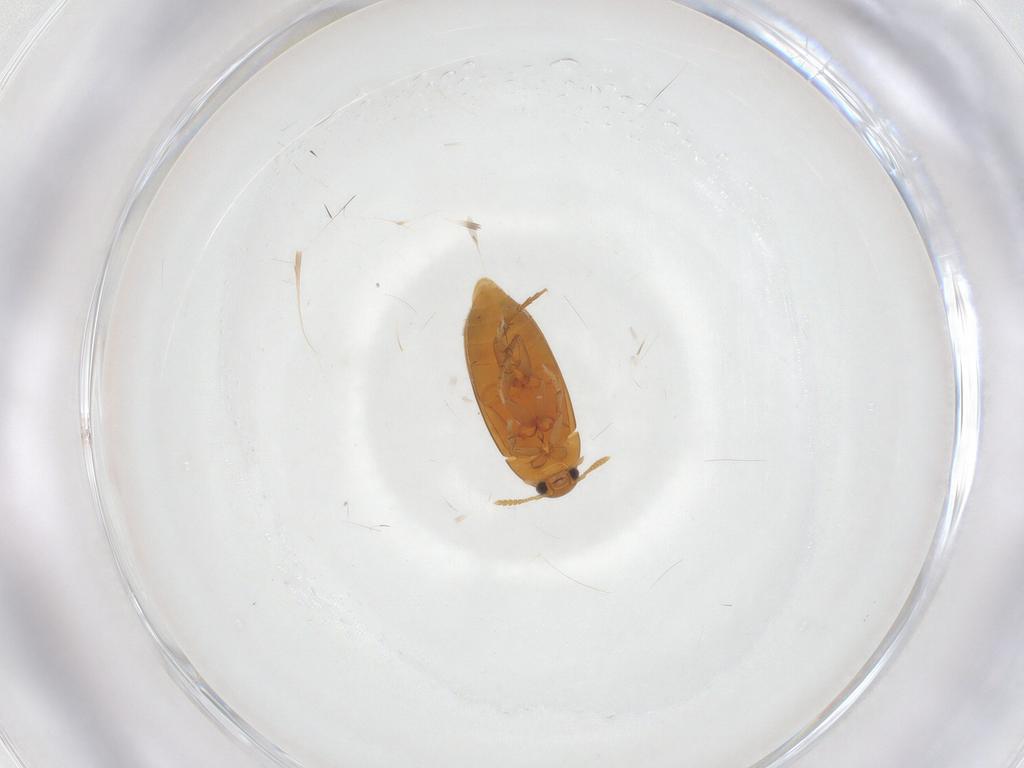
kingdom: Animalia
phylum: Arthropoda
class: Insecta
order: Coleoptera
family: Scraptiidae
